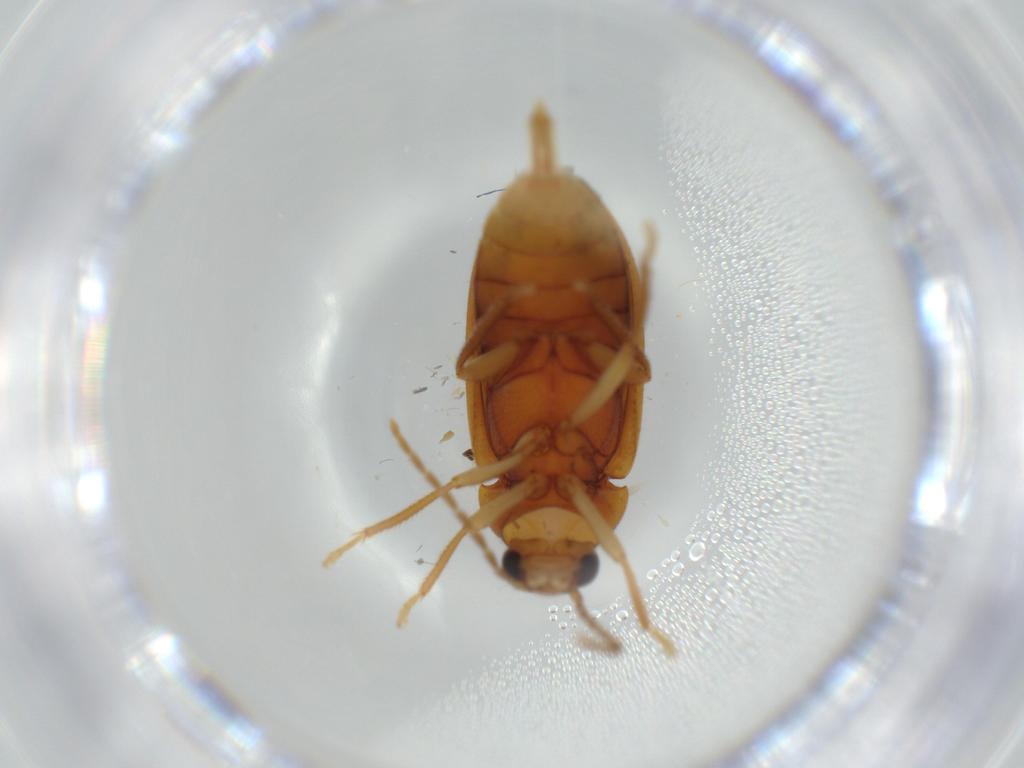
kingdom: Animalia
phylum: Arthropoda
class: Insecta
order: Coleoptera
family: Ptilodactylidae
